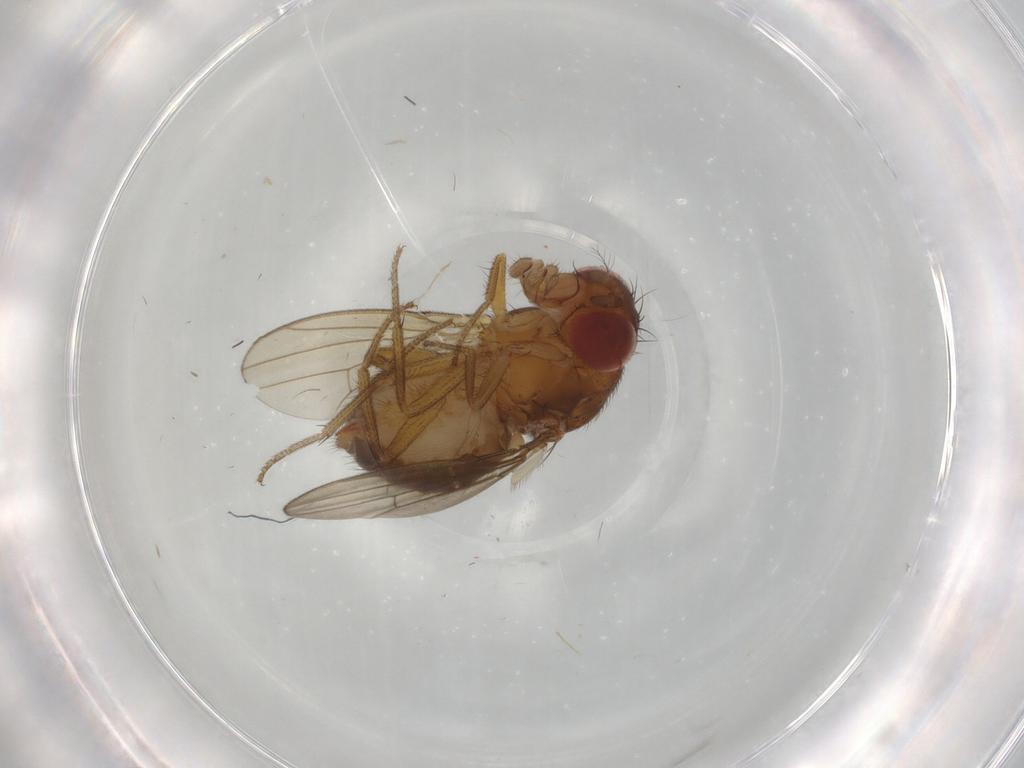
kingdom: Animalia
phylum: Arthropoda
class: Insecta
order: Diptera
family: Drosophilidae
